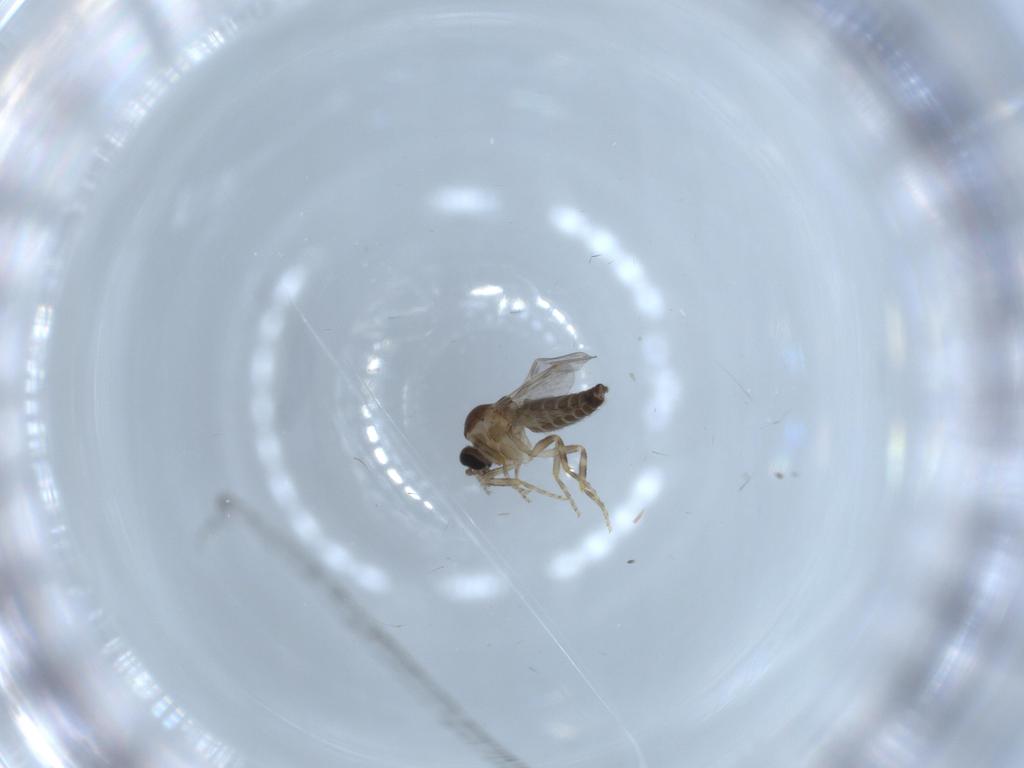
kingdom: Animalia
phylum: Arthropoda
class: Insecta
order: Diptera
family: Ceratopogonidae
